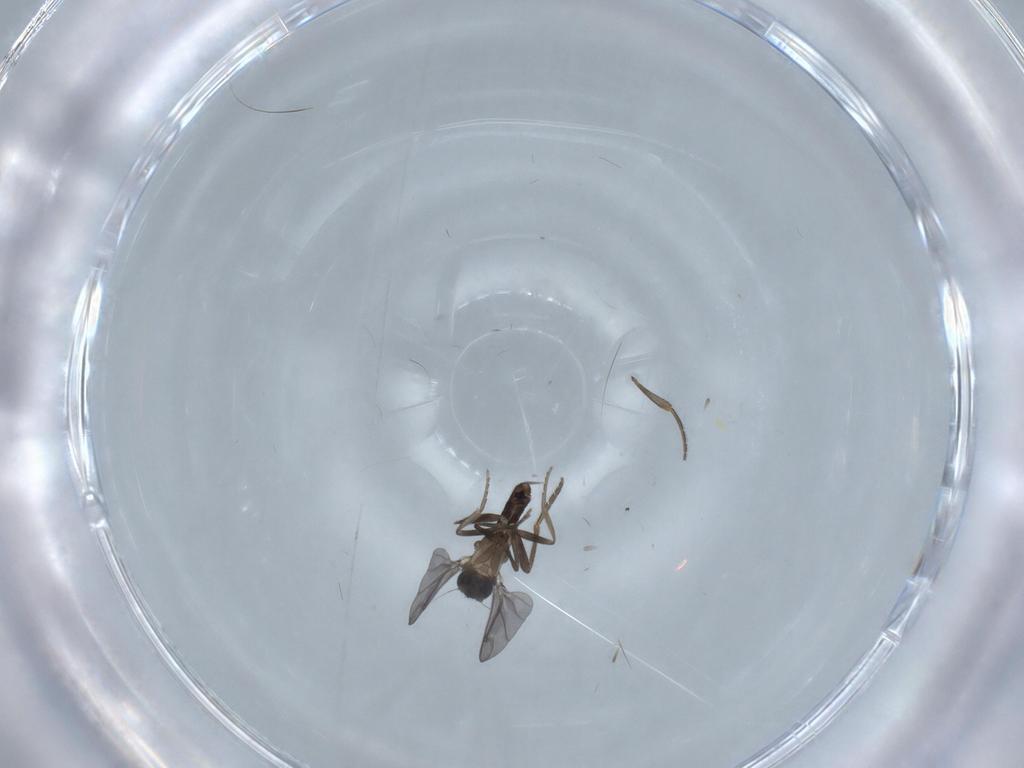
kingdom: Animalia
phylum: Arthropoda
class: Insecta
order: Diptera
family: Phoridae
